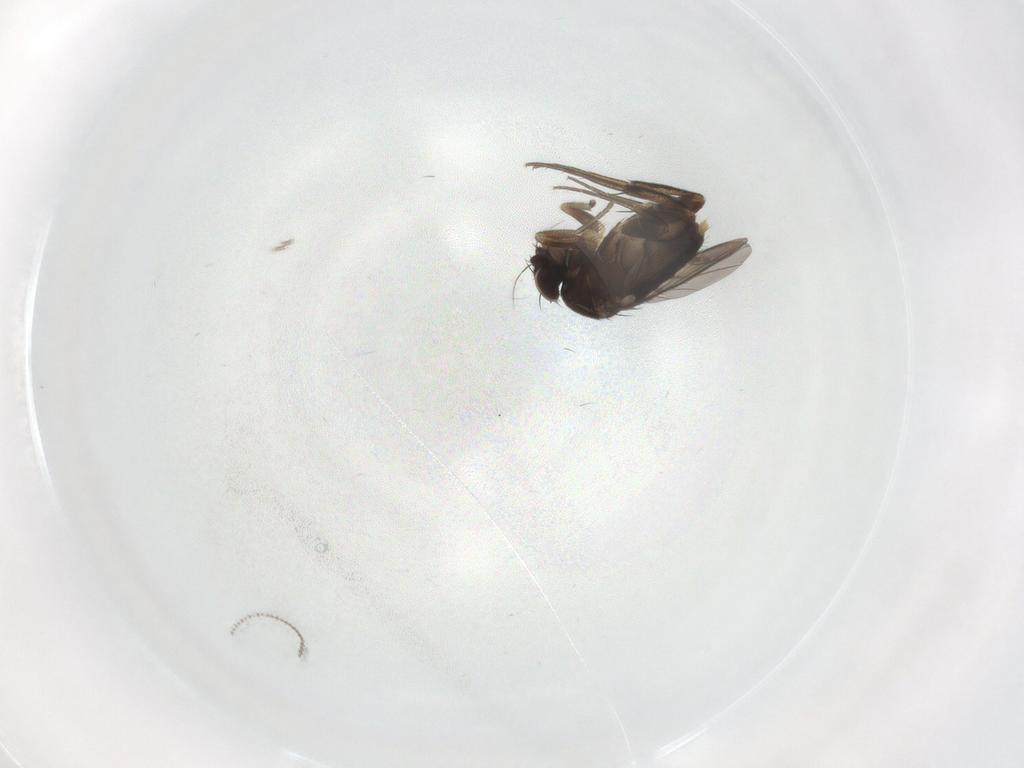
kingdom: Animalia
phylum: Arthropoda
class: Insecta
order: Diptera
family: Phoridae
